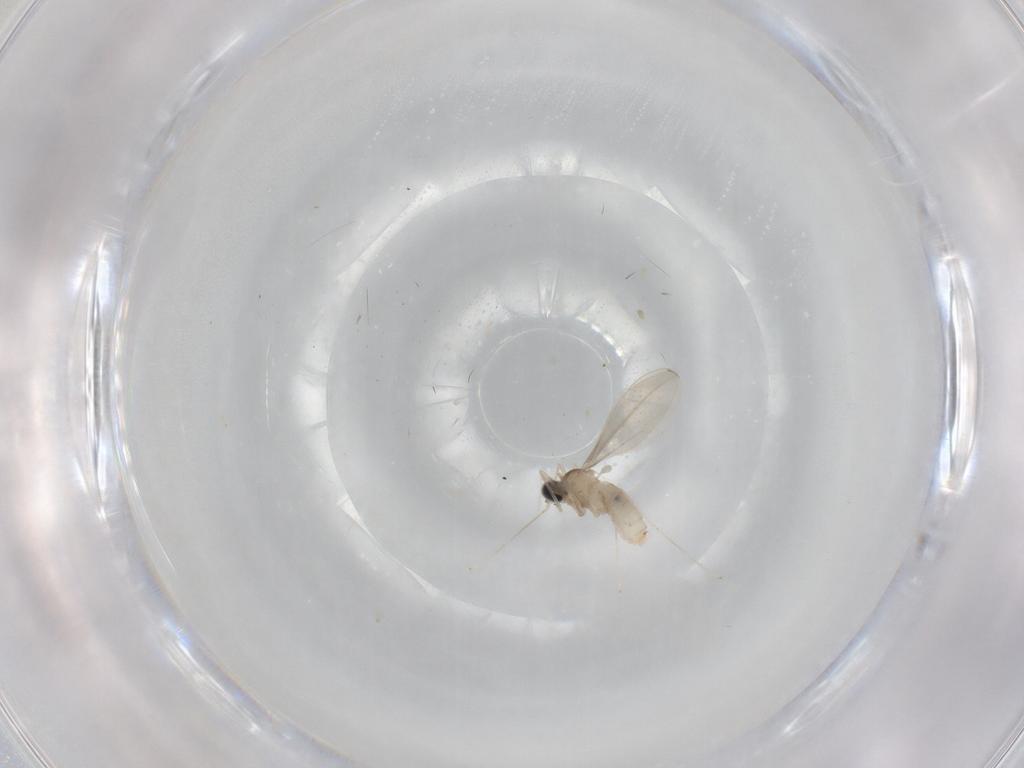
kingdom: Animalia
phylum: Arthropoda
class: Insecta
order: Diptera
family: Cecidomyiidae
